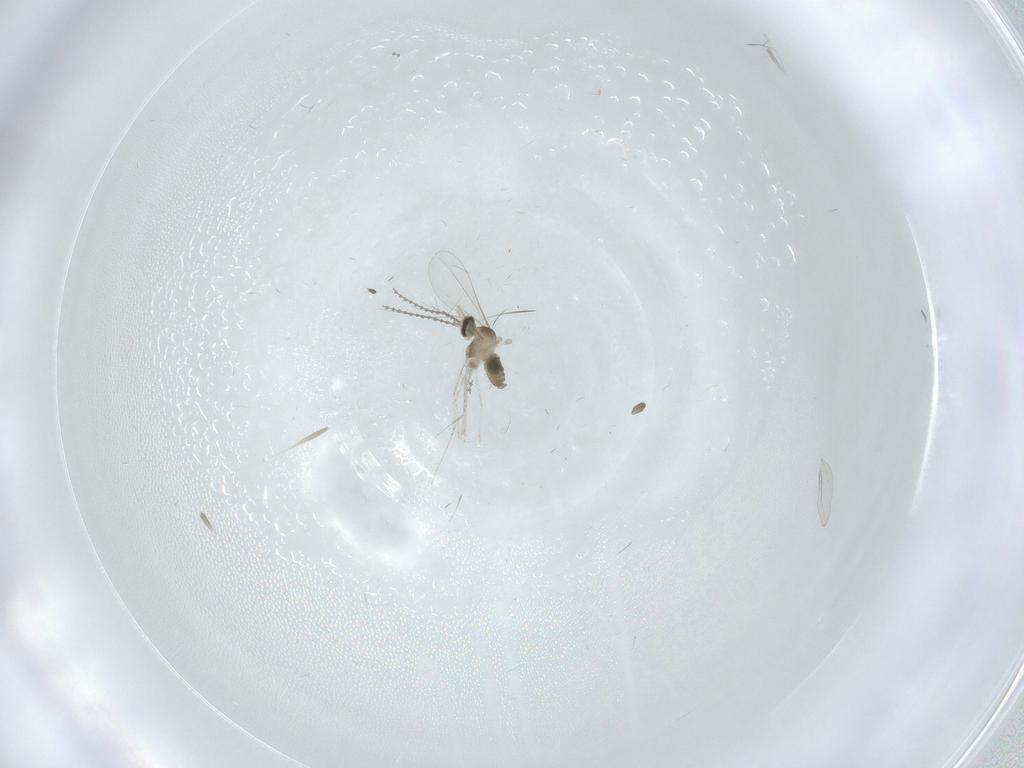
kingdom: Animalia
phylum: Arthropoda
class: Insecta
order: Diptera
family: Cecidomyiidae
